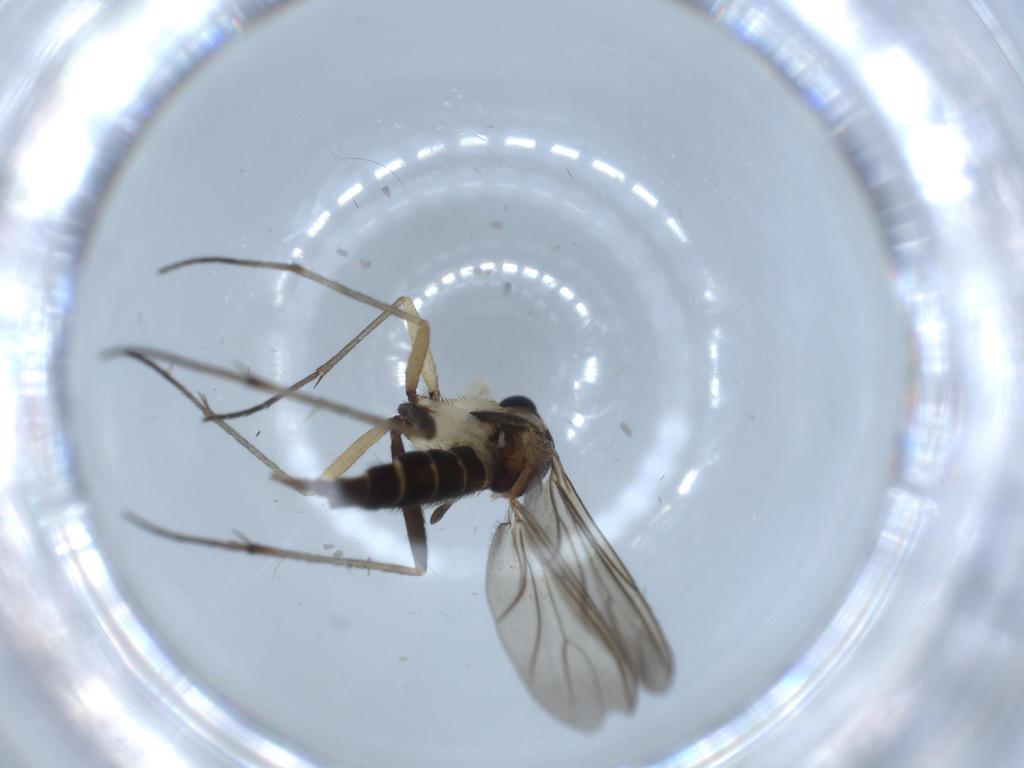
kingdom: Animalia
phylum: Arthropoda
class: Insecta
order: Diptera
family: Sciaridae
